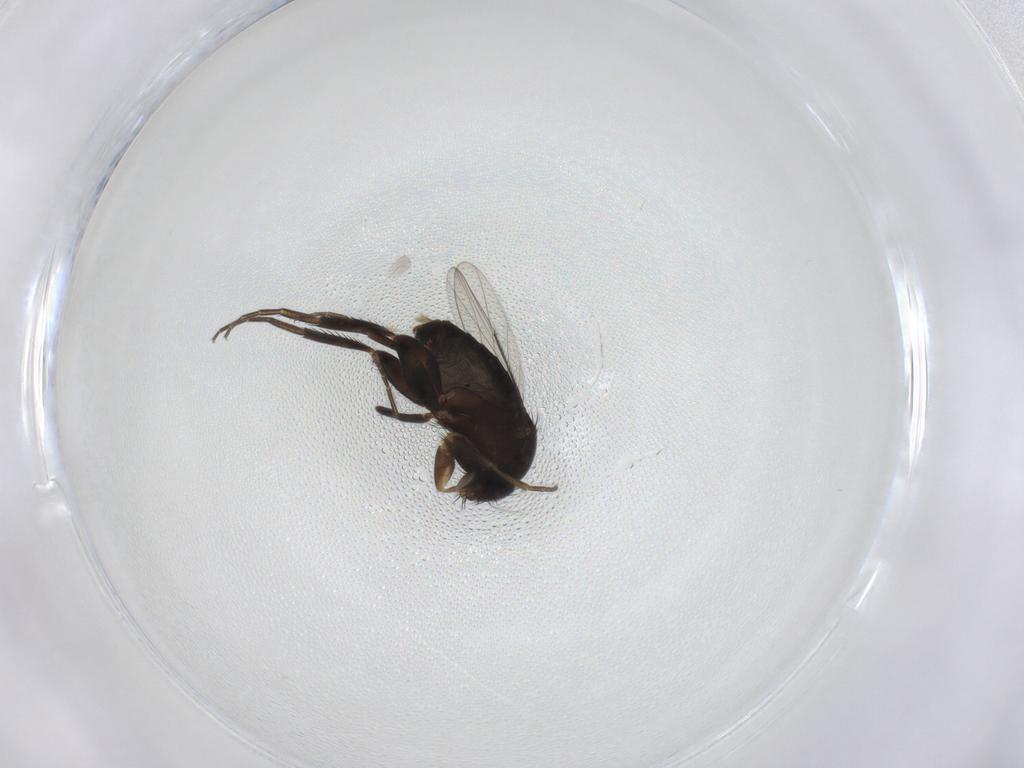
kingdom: Animalia
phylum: Arthropoda
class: Insecta
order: Diptera
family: Phoridae
